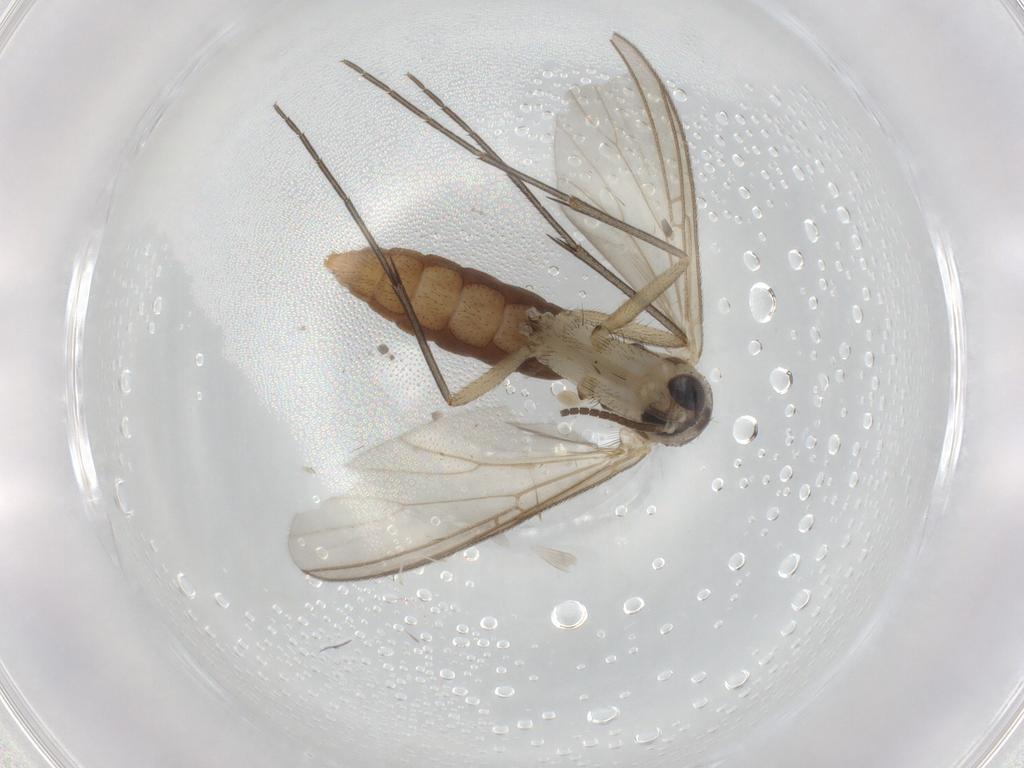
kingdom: Animalia
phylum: Arthropoda
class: Insecta
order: Diptera
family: Mycetophilidae
